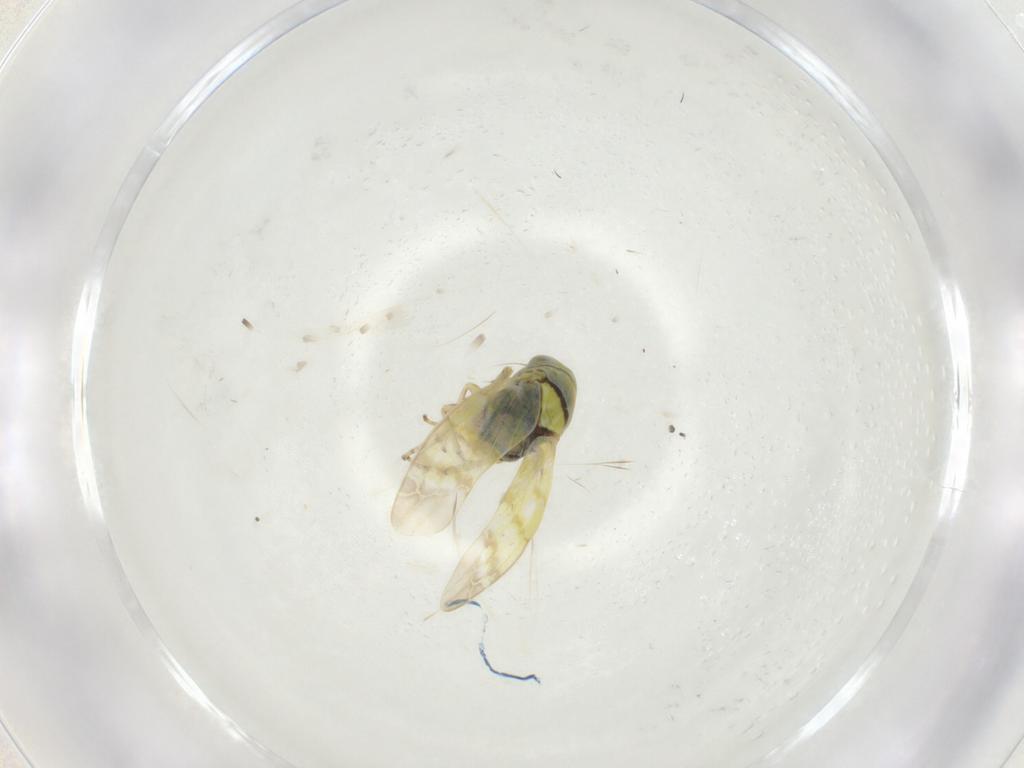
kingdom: Animalia
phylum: Arthropoda
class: Insecta
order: Hemiptera
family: Cicadellidae
